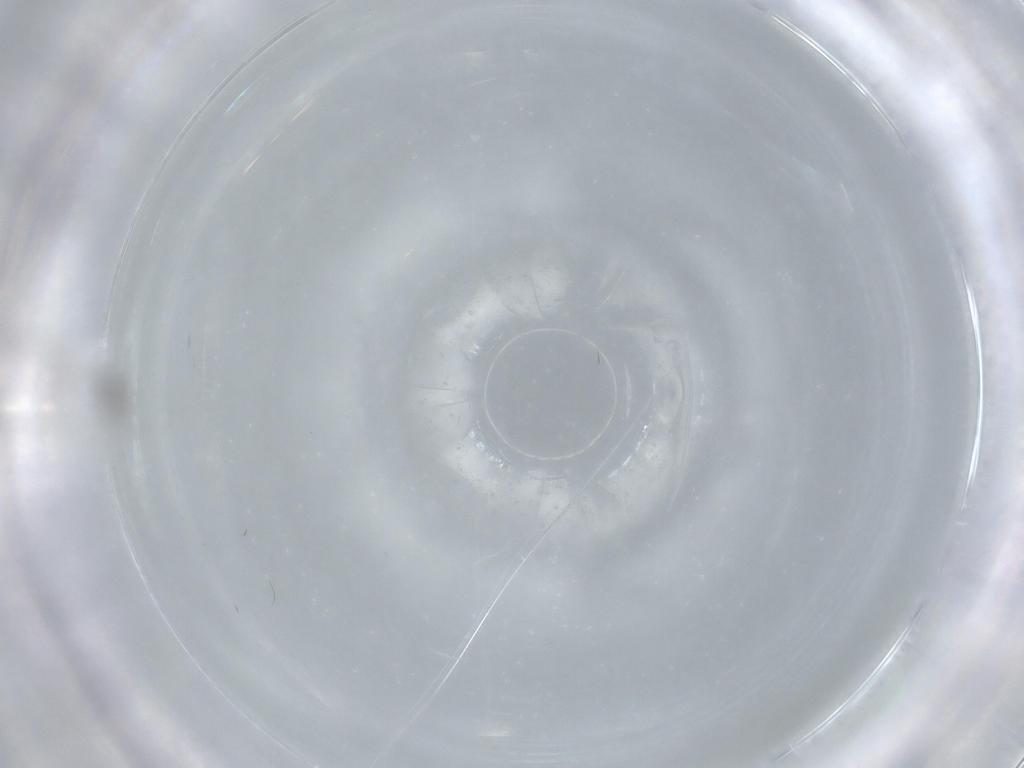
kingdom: Animalia
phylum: Arthropoda
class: Insecta
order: Diptera
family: Cecidomyiidae
